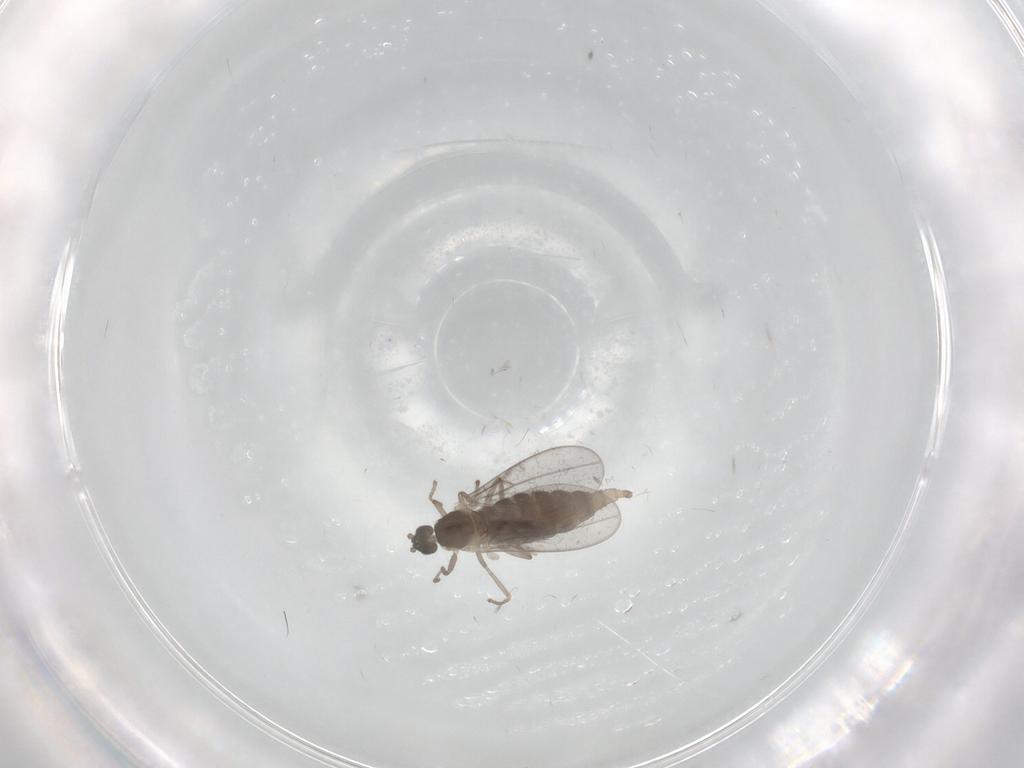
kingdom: Animalia
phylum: Arthropoda
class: Insecta
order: Diptera
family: Cecidomyiidae
